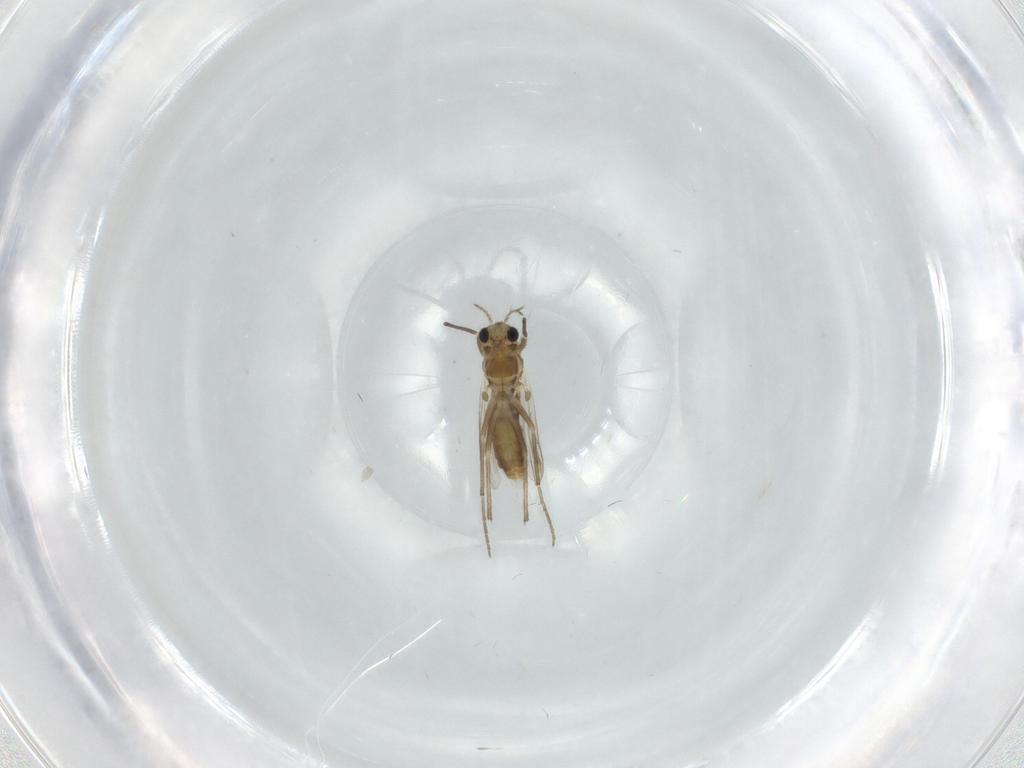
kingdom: Animalia
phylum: Arthropoda
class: Insecta
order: Diptera
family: Chironomidae
